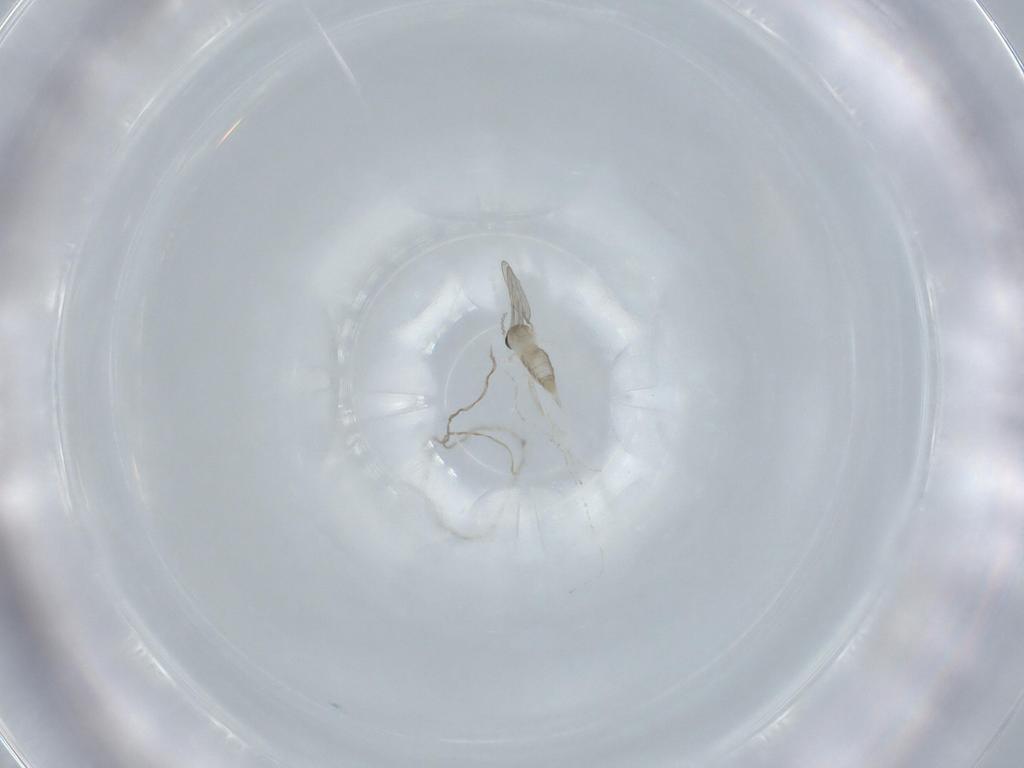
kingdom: Animalia
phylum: Arthropoda
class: Insecta
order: Diptera
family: Cecidomyiidae
